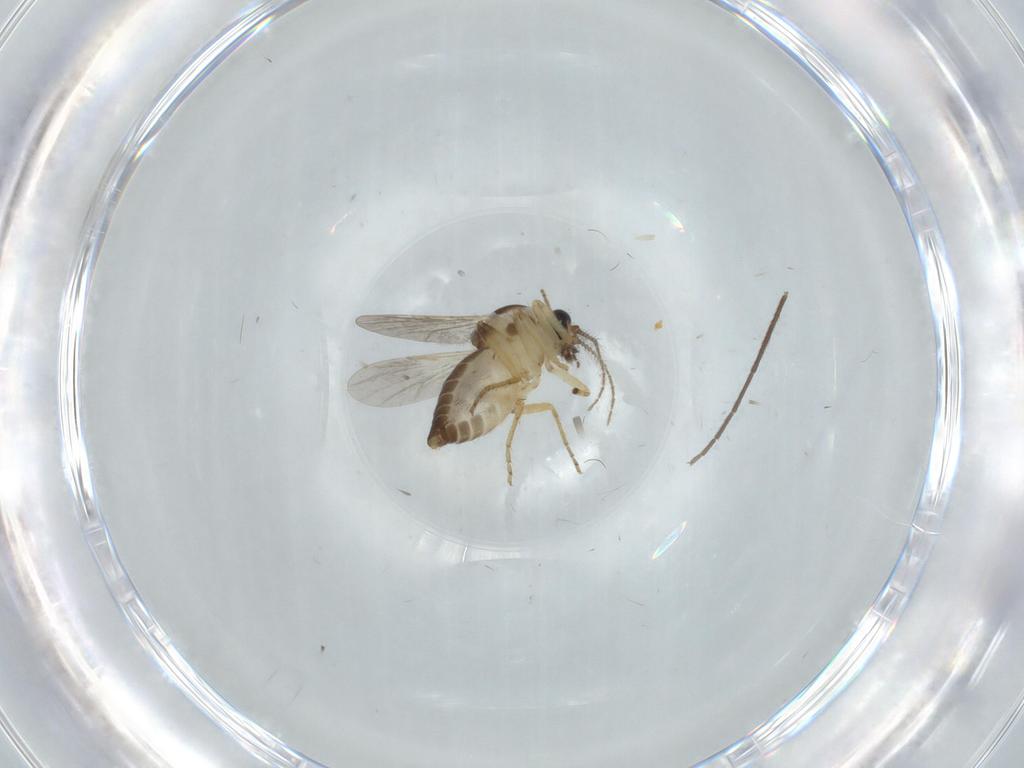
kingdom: Animalia
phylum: Arthropoda
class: Insecta
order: Diptera
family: Ceratopogonidae
